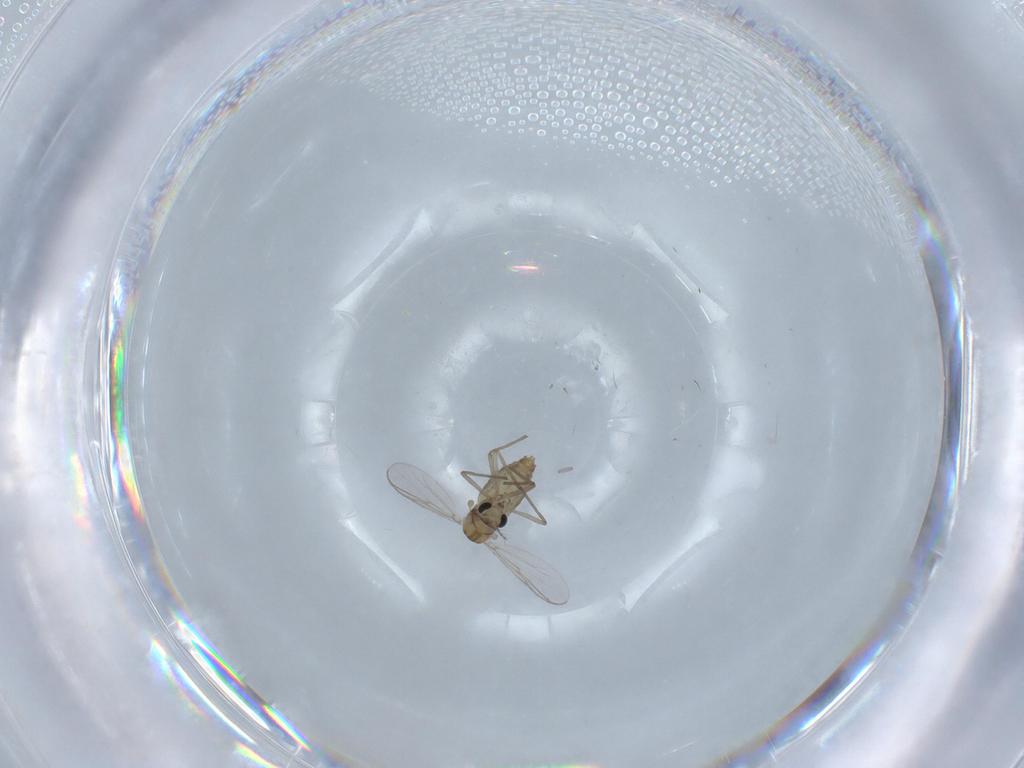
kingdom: Animalia
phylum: Arthropoda
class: Insecta
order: Diptera
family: Chironomidae
